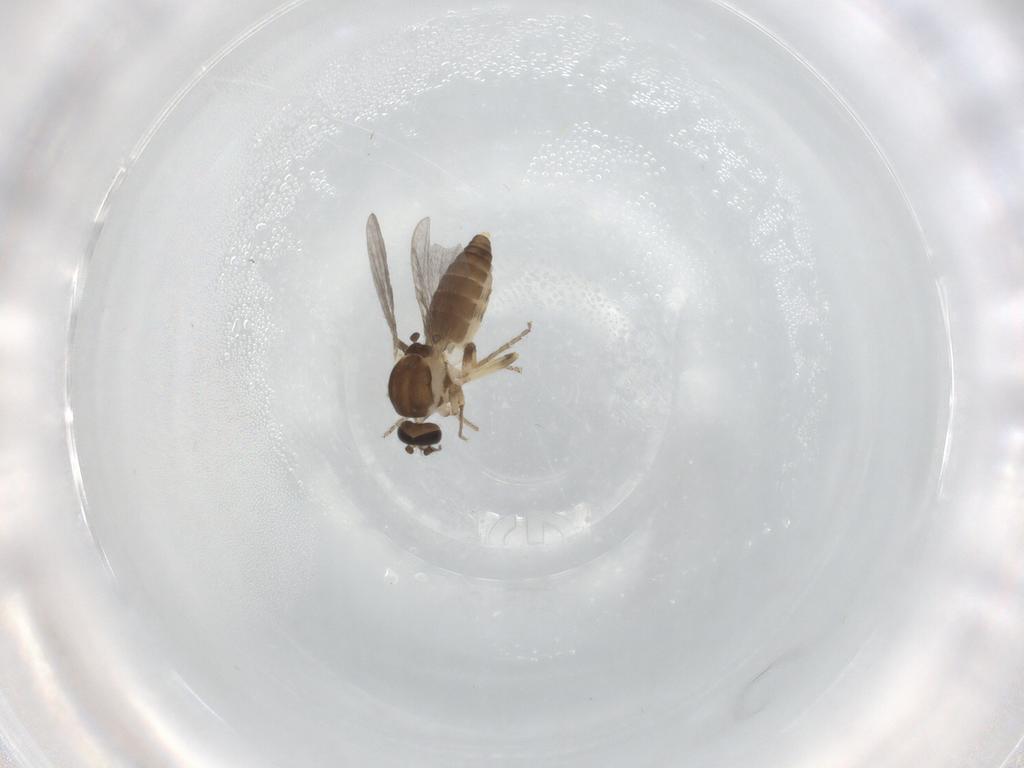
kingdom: Animalia
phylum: Arthropoda
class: Insecta
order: Diptera
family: Ceratopogonidae
